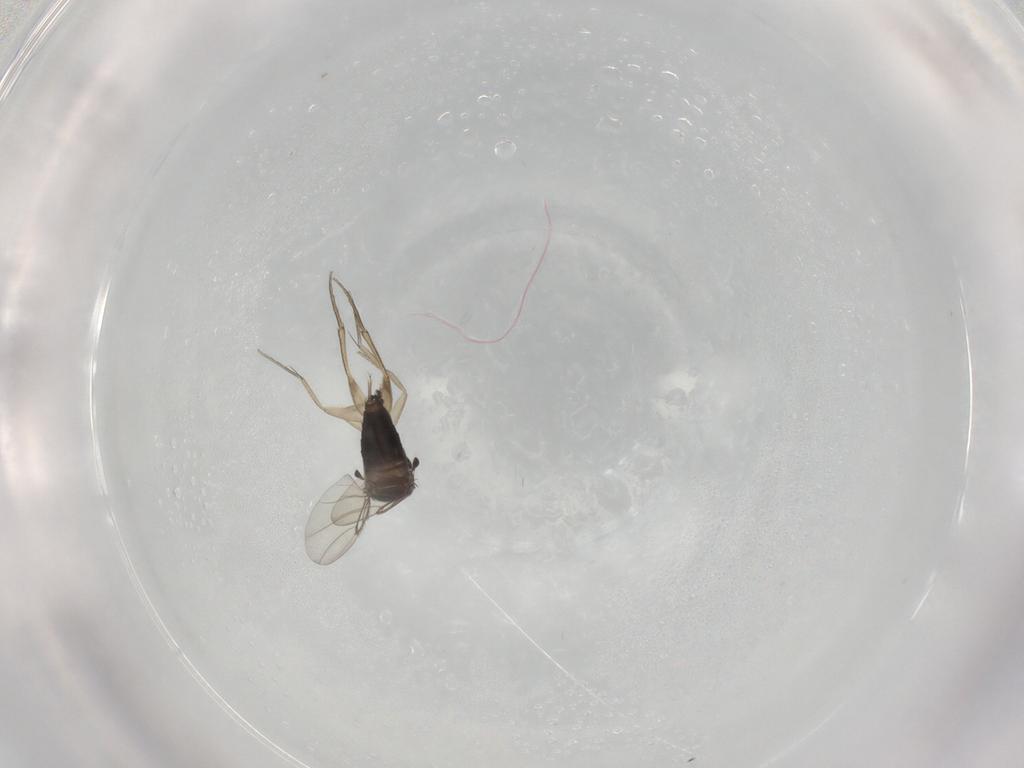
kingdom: Animalia
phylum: Arthropoda
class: Insecta
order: Diptera
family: Phoridae
